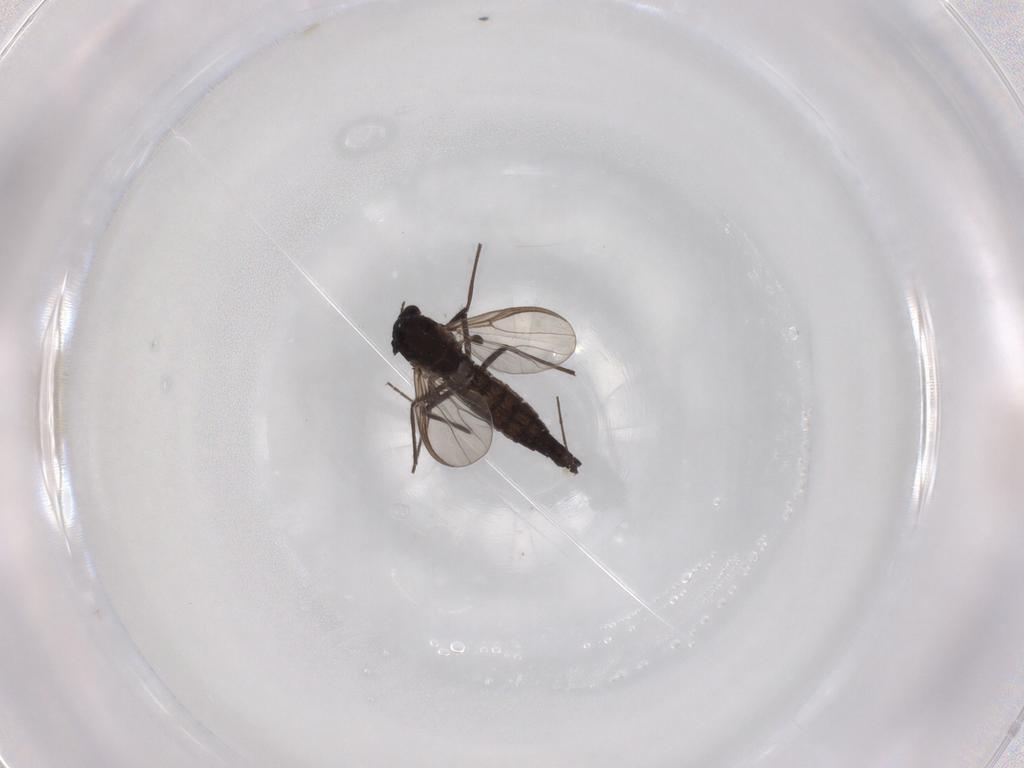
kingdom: Animalia
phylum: Arthropoda
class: Insecta
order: Diptera
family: Chironomidae
